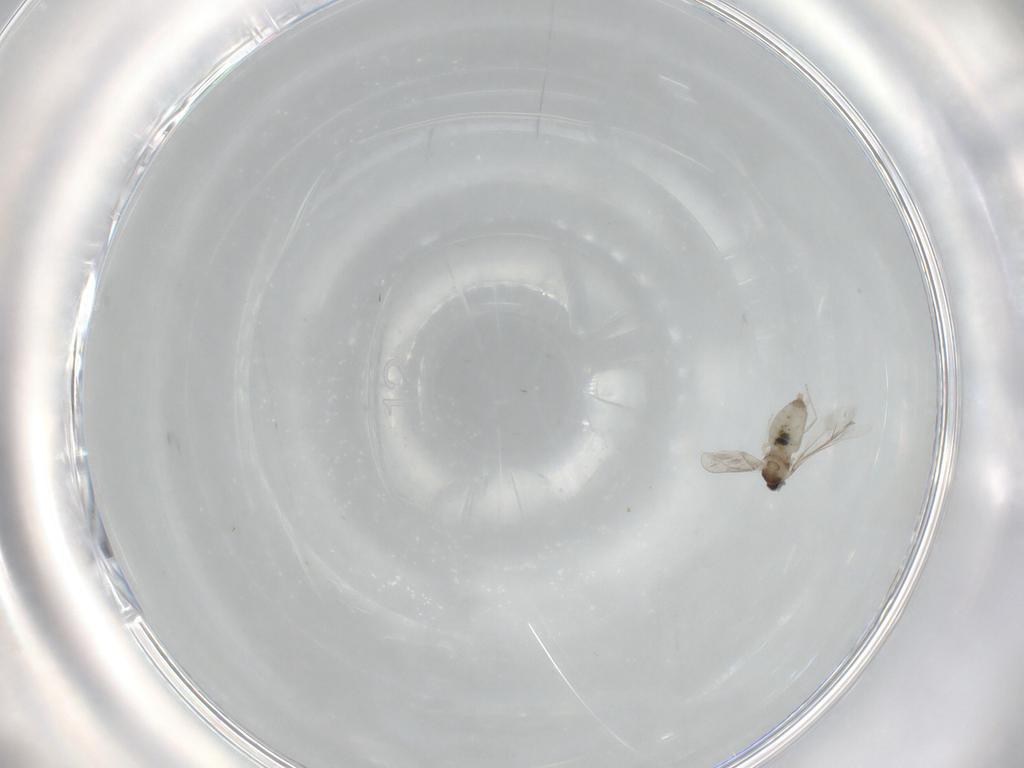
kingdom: Animalia
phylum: Arthropoda
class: Insecta
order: Diptera
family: Cecidomyiidae
